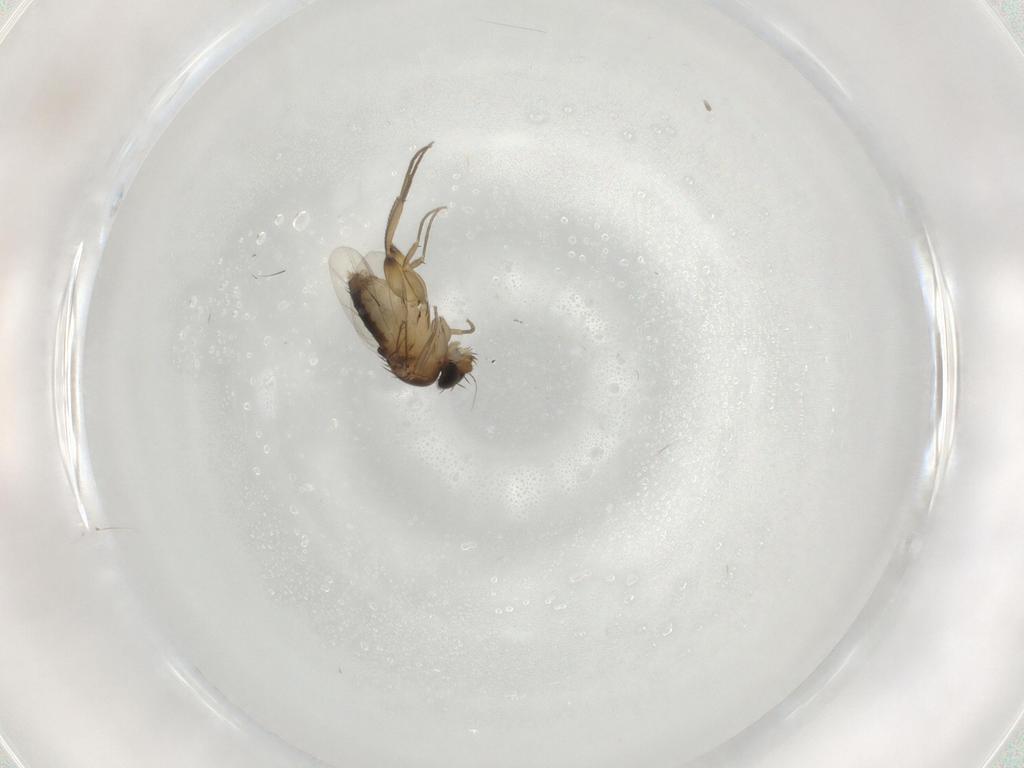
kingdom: Animalia
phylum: Arthropoda
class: Insecta
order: Diptera
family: Phoridae
